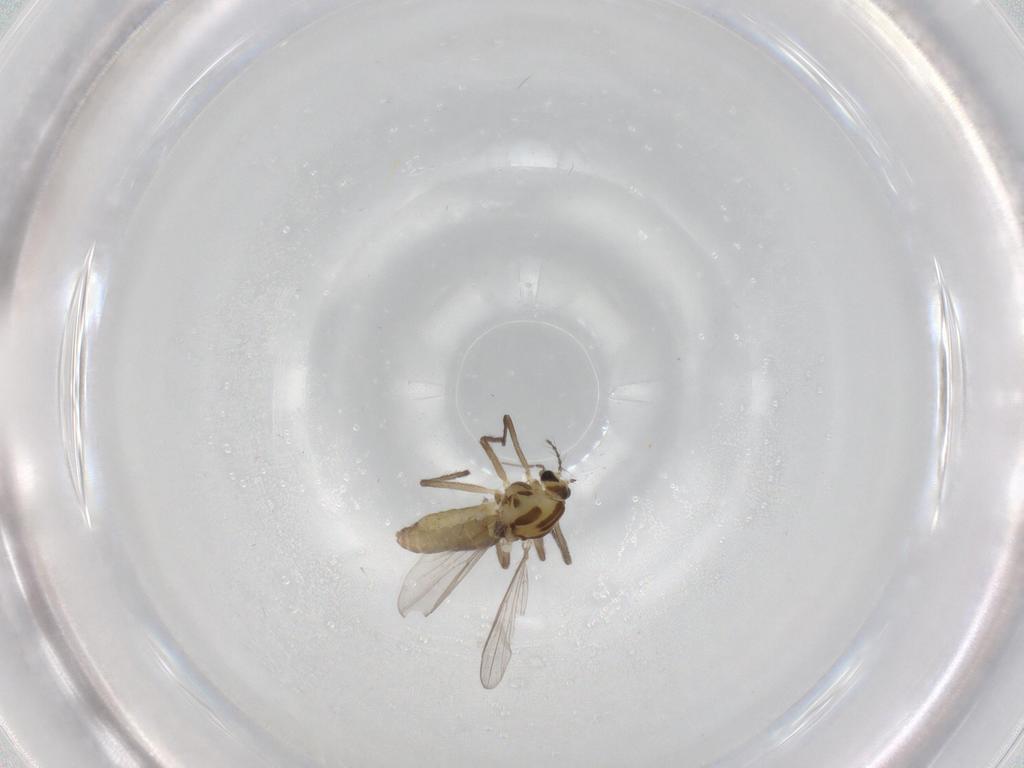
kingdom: Animalia
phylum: Arthropoda
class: Insecta
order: Diptera
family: Chironomidae
